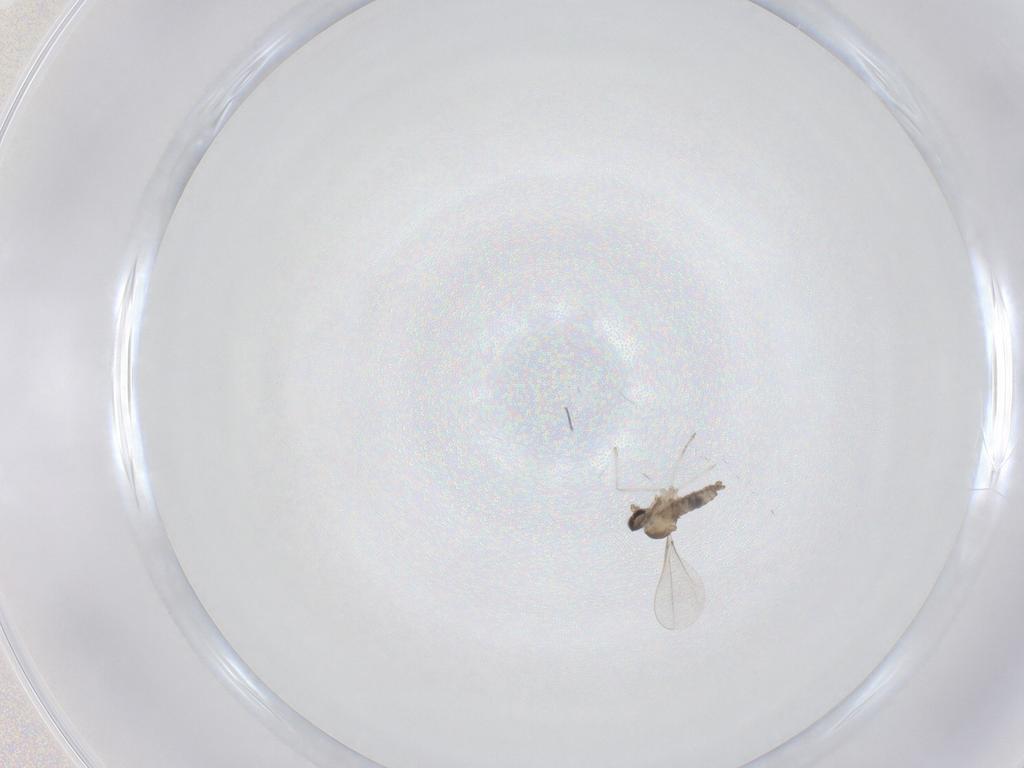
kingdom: Animalia
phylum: Arthropoda
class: Insecta
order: Diptera
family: Cecidomyiidae
